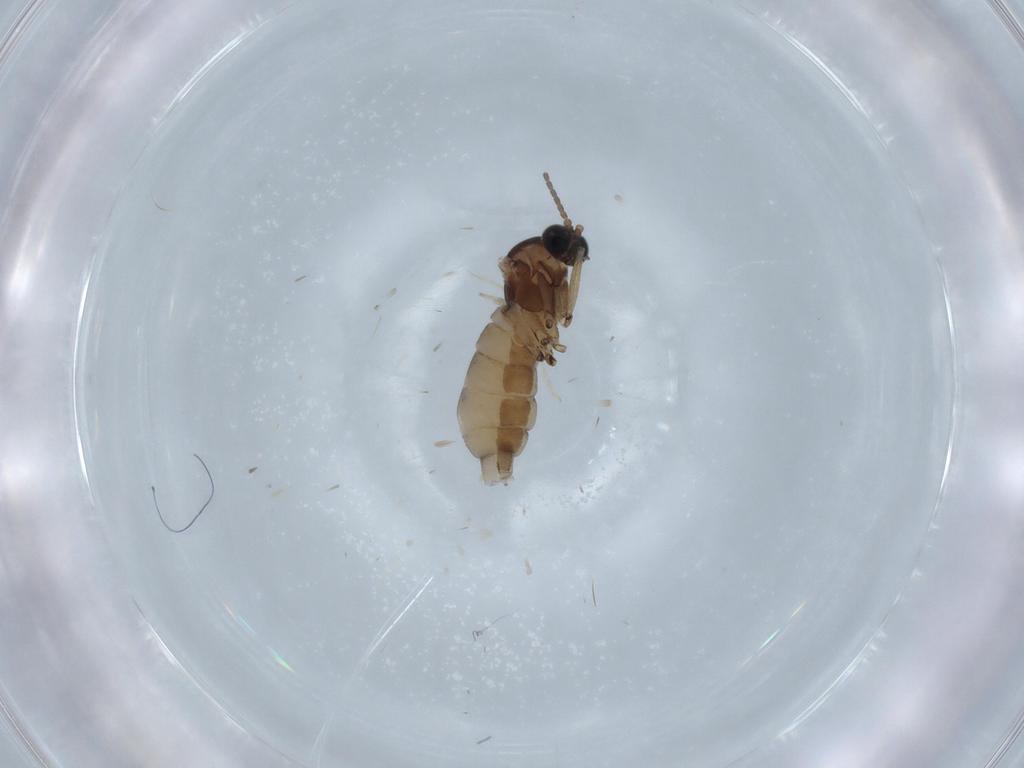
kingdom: Animalia
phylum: Arthropoda
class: Insecta
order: Diptera
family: Sciaridae
